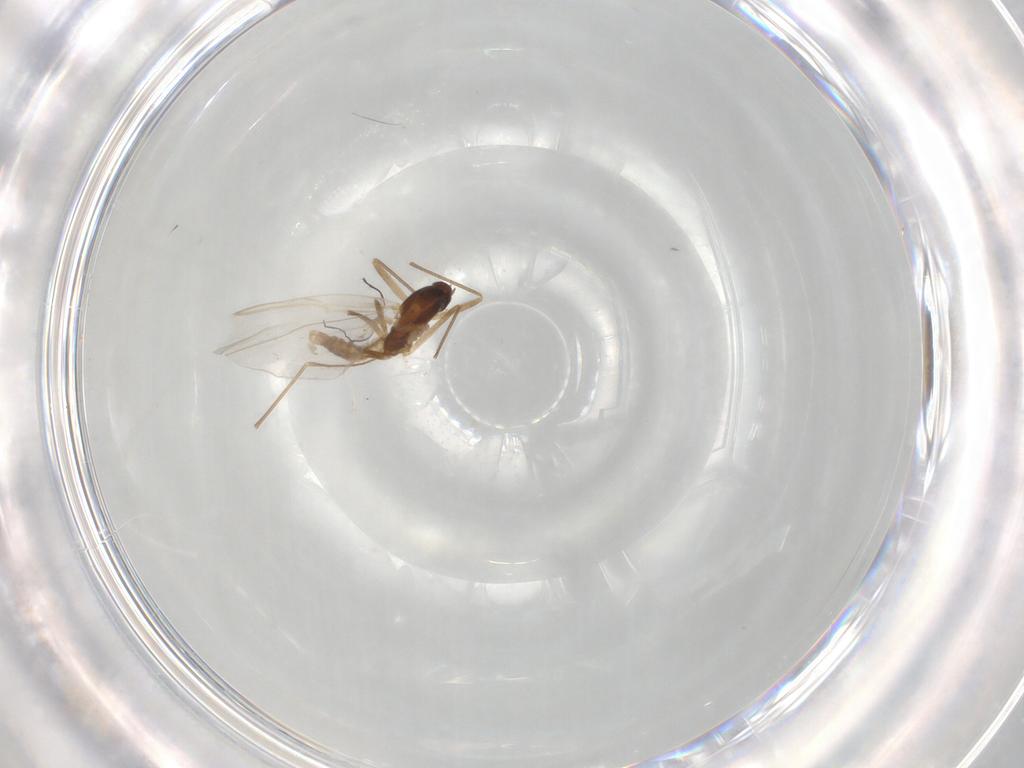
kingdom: Animalia
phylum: Arthropoda
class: Insecta
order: Diptera
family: Cecidomyiidae
